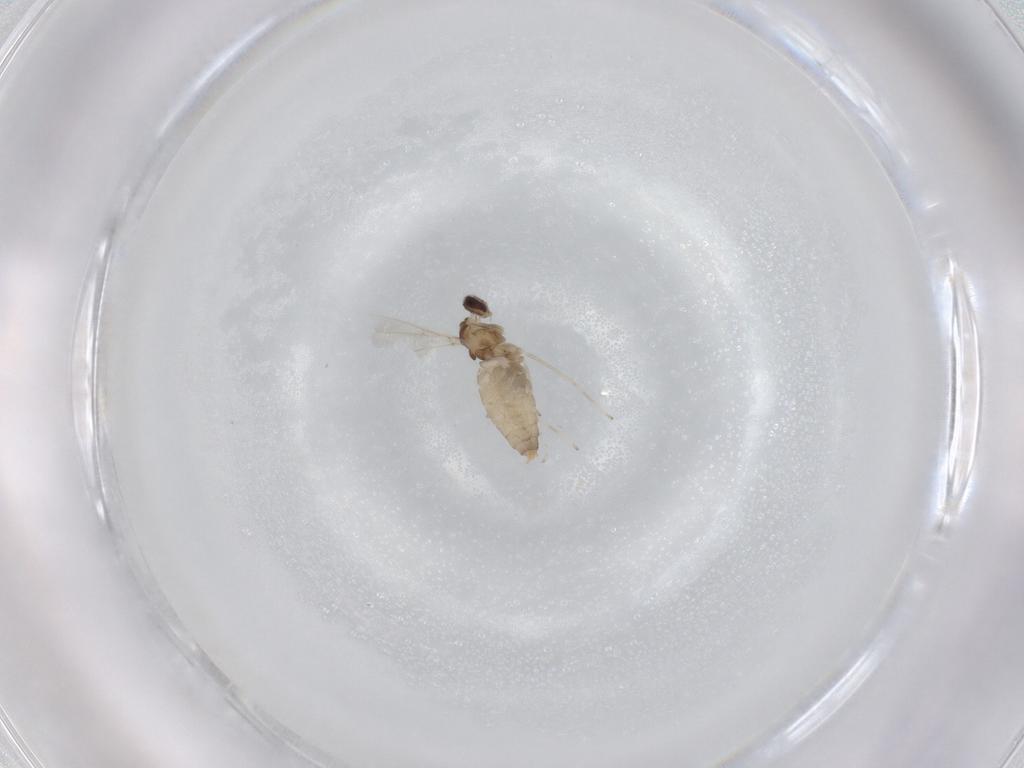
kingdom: Animalia
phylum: Arthropoda
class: Insecta
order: Diptera
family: Cecidomyiidae
